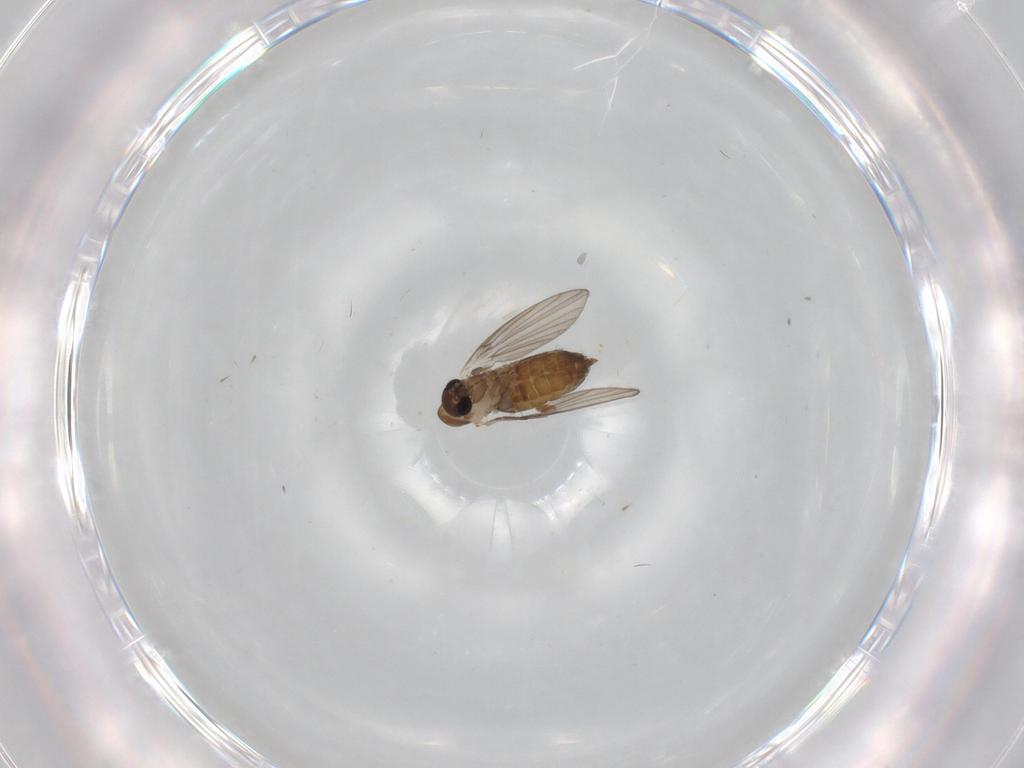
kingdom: Animalia
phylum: Arthropoda
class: Insecta
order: Diptera
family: Psychodidae
